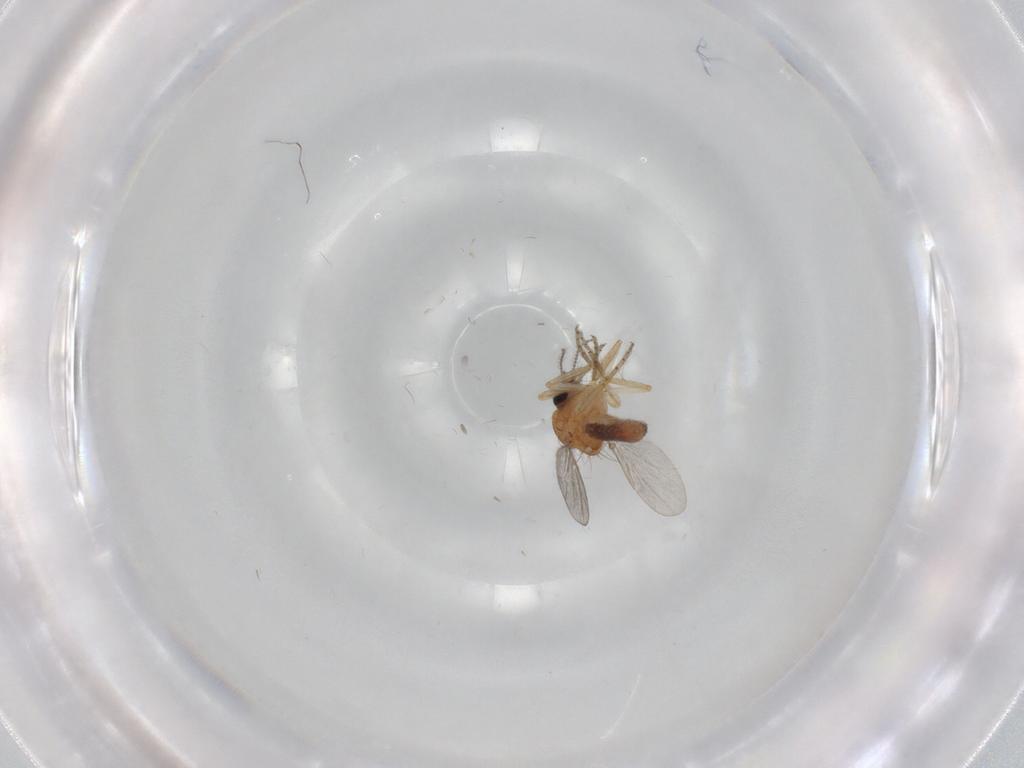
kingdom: Animalia
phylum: Arthropoda
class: Insecta
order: Diptera
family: Ceratopogonidae
